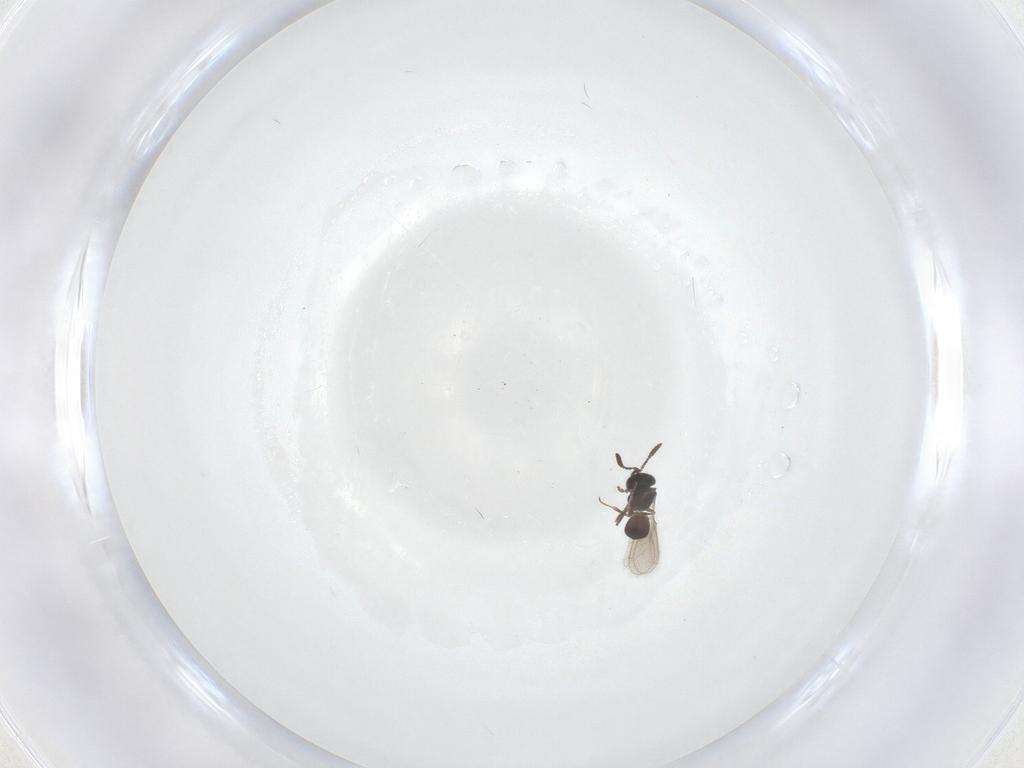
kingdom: Animalia
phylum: Arthropoda
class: Insecta
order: Hymenoptera
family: Scelionidae
